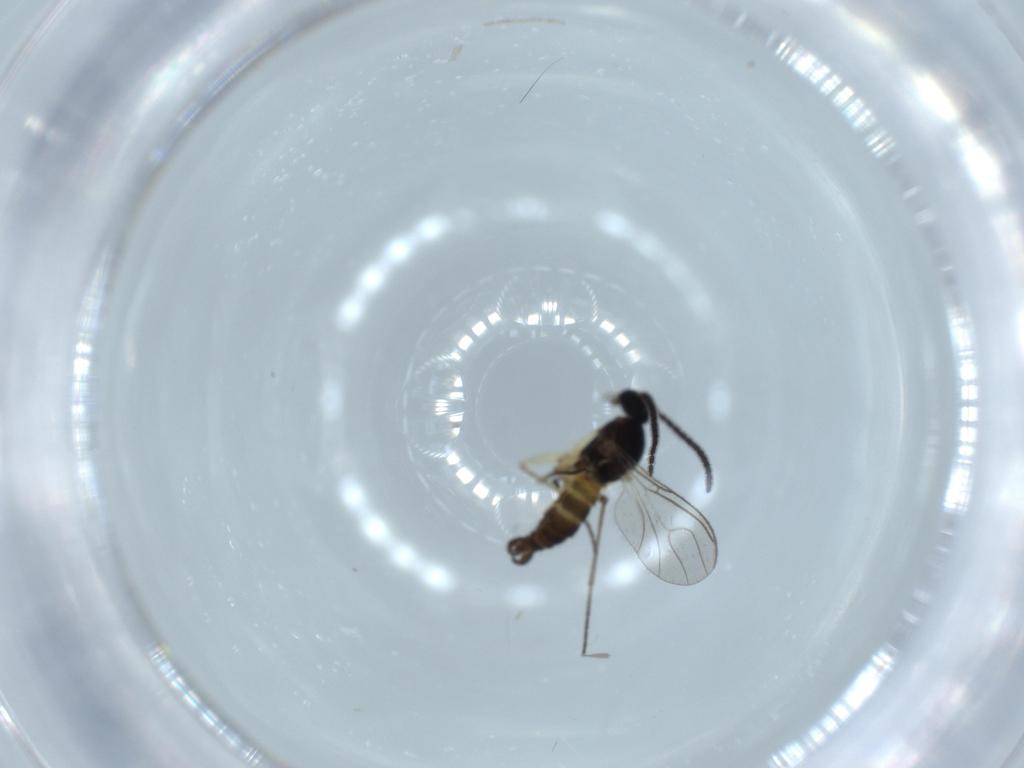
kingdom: Animalia
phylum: Arthropoda
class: Insecta
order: Diptera
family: Sciaridae
